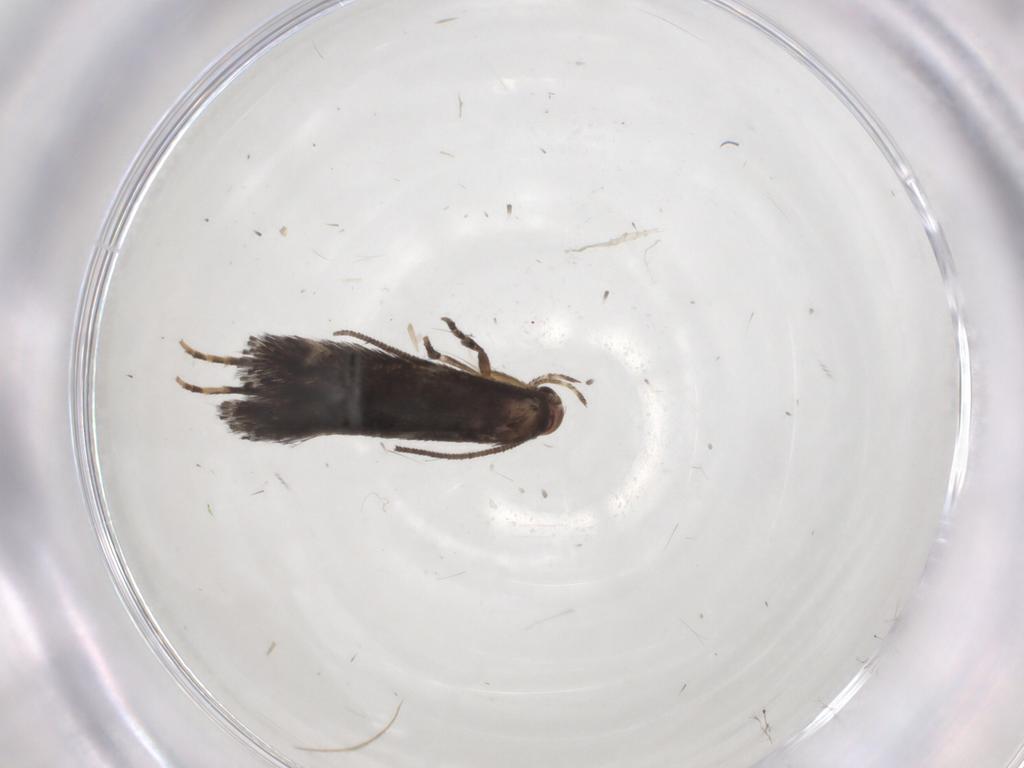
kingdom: Animalia
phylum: Arthropoda
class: Insecta
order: Lepidoptera
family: Elachistidae
